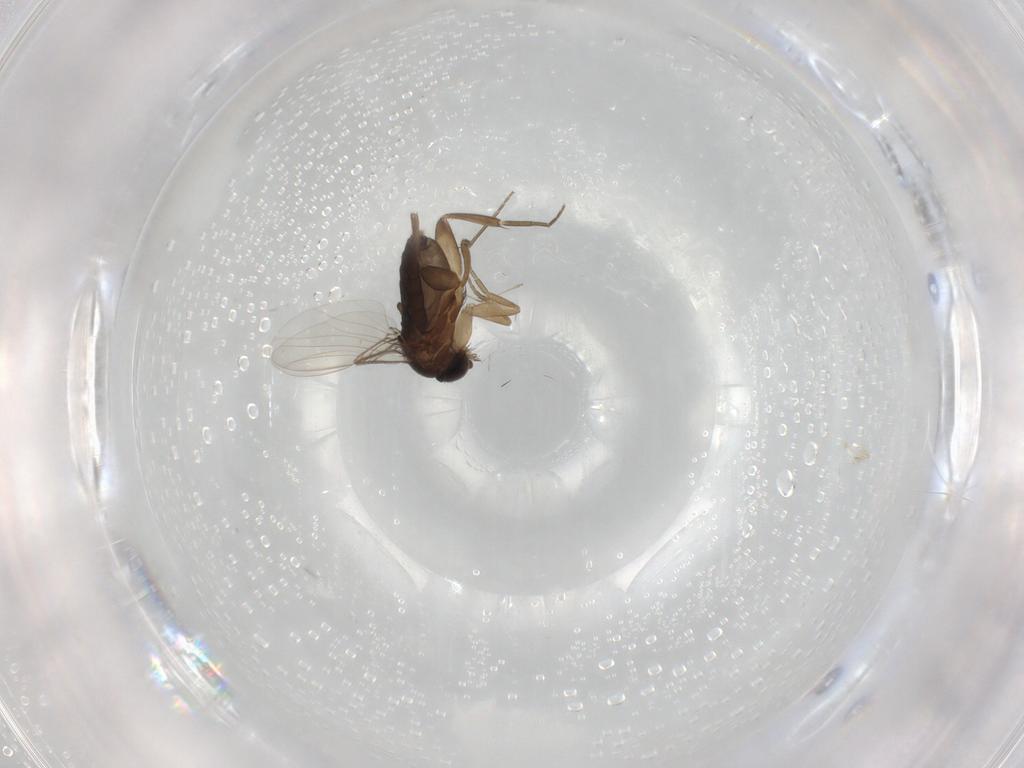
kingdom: Animalia
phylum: Arthropoda
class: Insecta
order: Diptera
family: Phoridae
